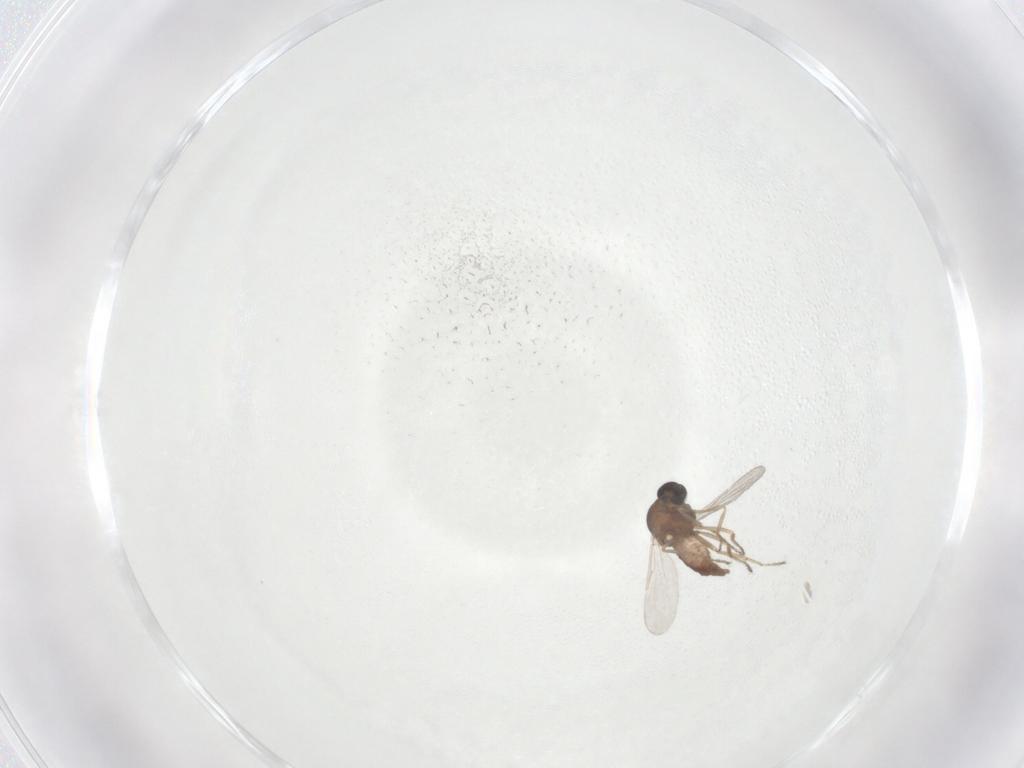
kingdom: Animalia
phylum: Arthropoda
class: Insecta
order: Diptera
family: Ceratopogonidae
